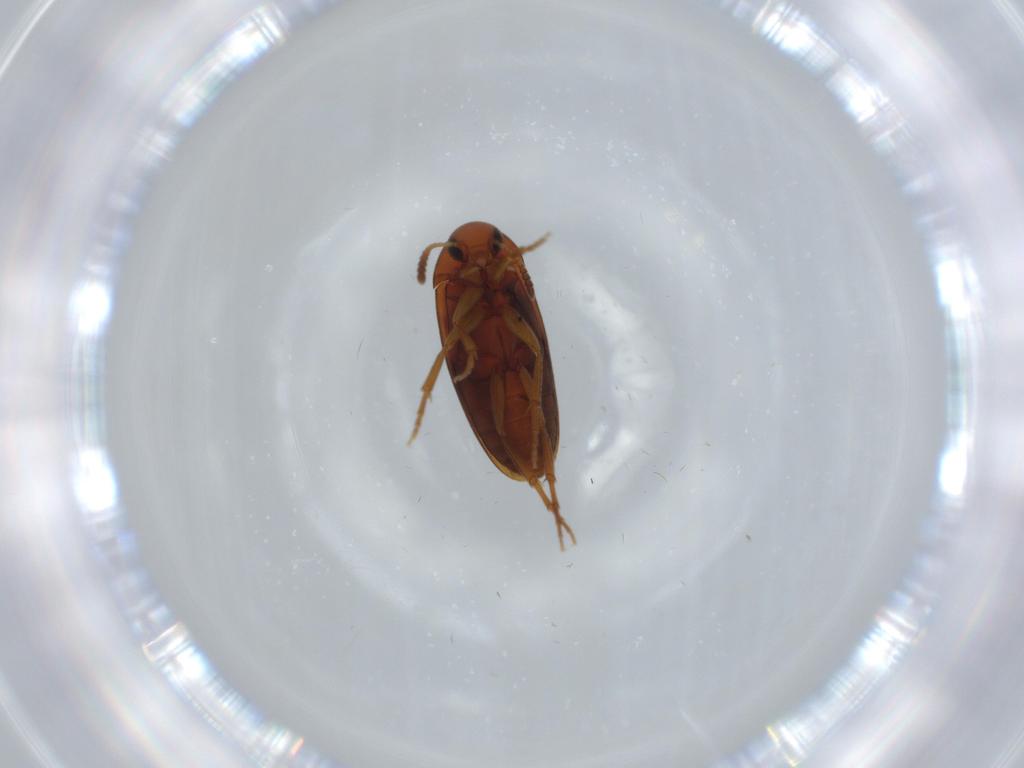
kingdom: Animalia
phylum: Arthropoda
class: Insecta
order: Coleoptera
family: Scraptiidae
